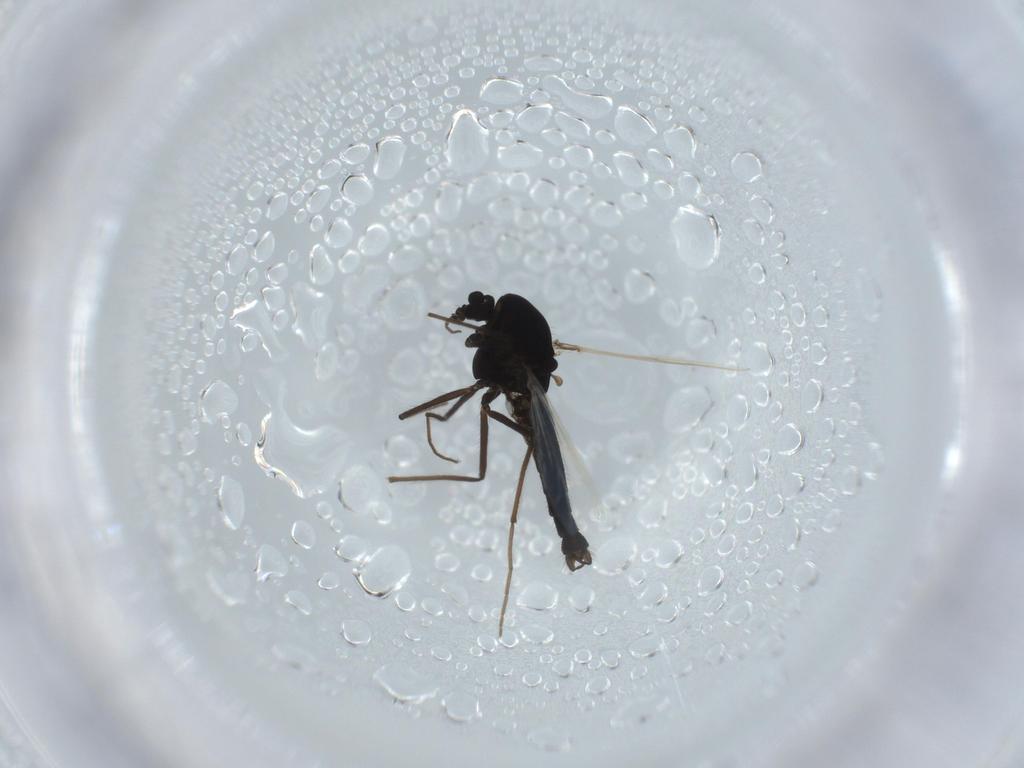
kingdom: Animalia
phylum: Arthropoda
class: Insecta
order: Diptera
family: Chironomidae
